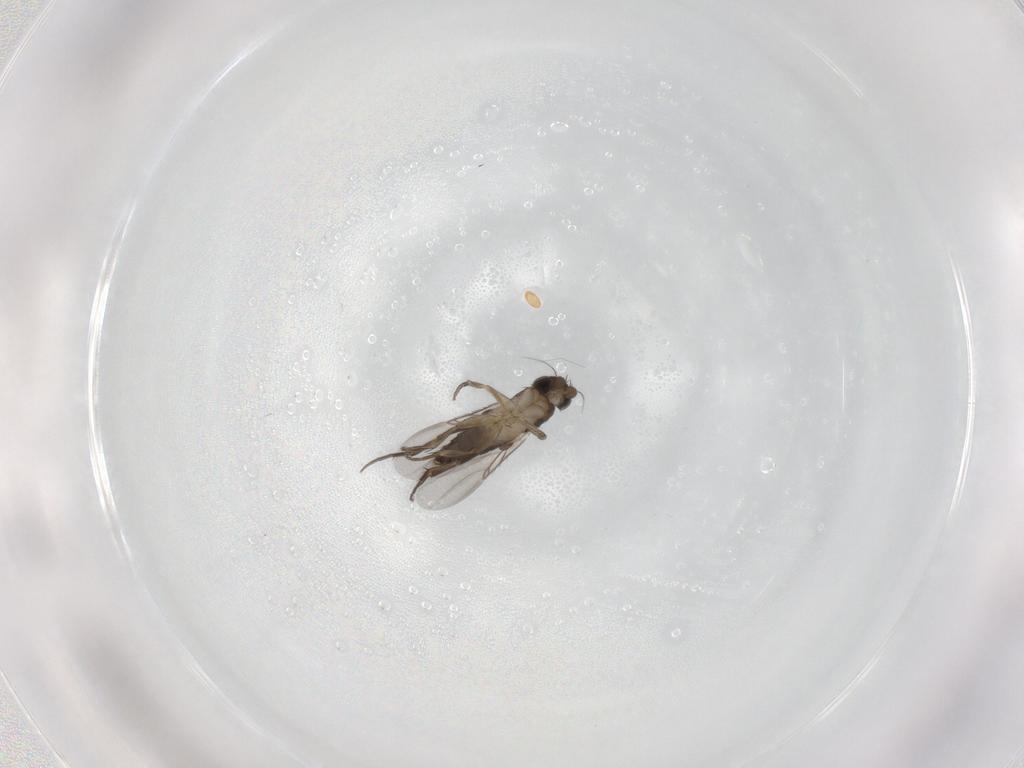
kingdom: Animalia
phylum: Arthropoda
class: Insecta
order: Diptera
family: Phoridae
